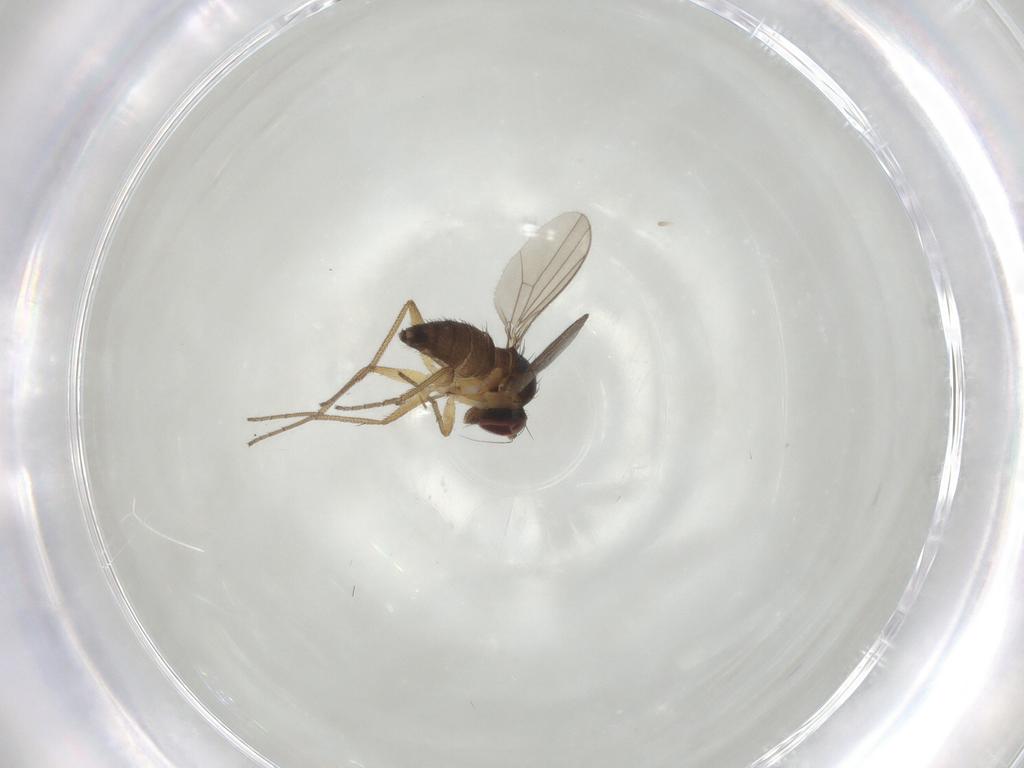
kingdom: Animalia
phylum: Arthropoda
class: Insecta
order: Diptera
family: Dolichopodidae
